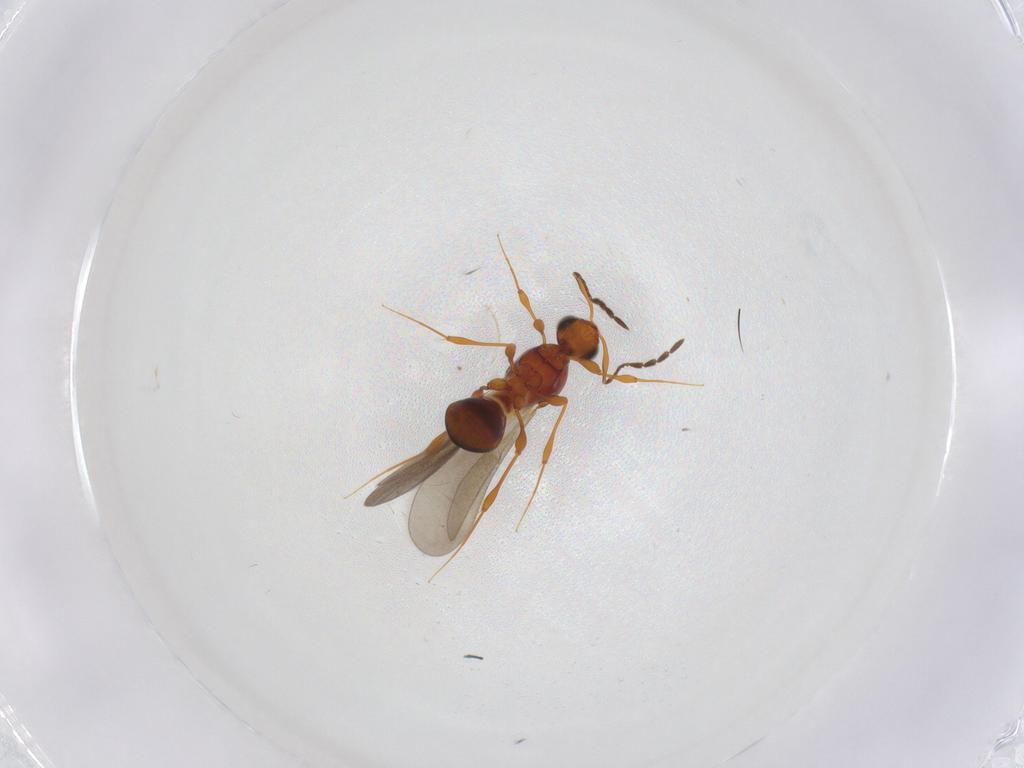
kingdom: Animalia
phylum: Arthropoda
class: Insecta
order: Hymenoptera
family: Platygastridae
